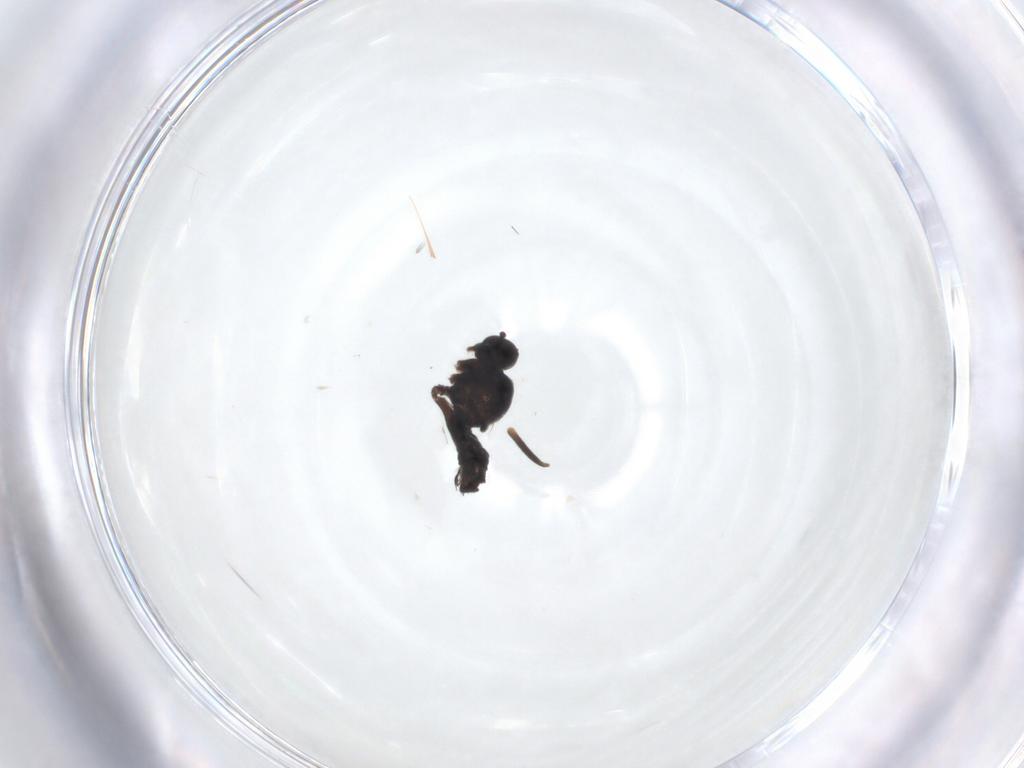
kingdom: Animalia
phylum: Arthropoda
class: Insecta
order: Diptera
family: Hybotidae
